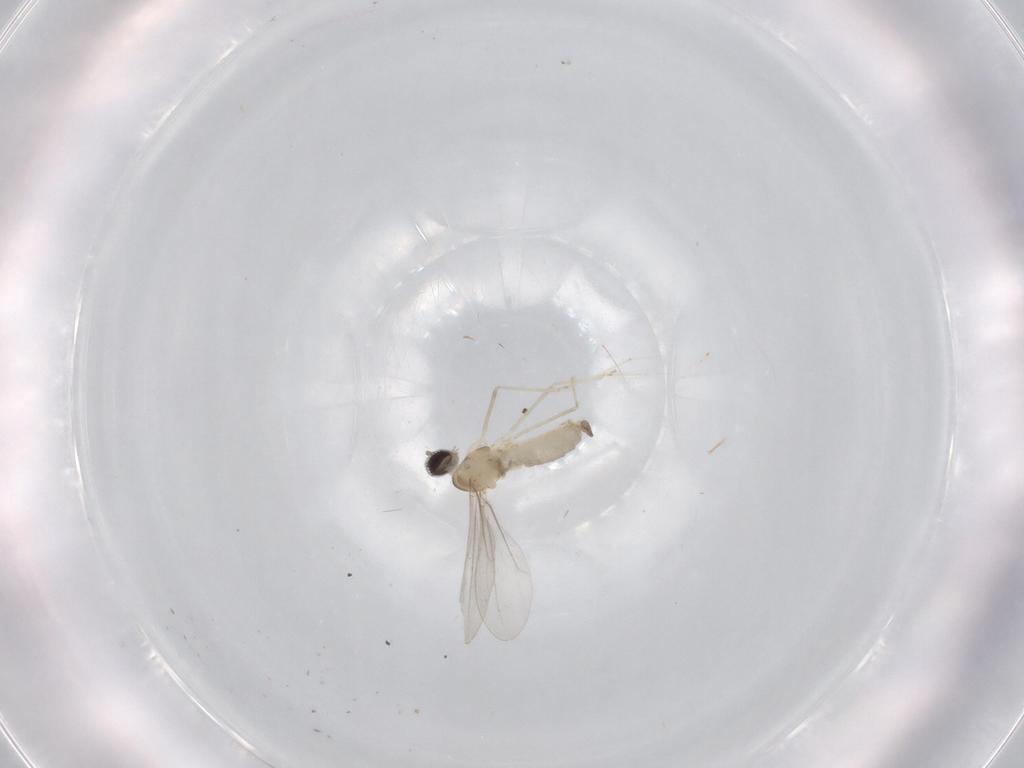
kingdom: Animalia
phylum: Arthropoda
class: Insecta
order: Diptera
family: Cecidomyiidae
